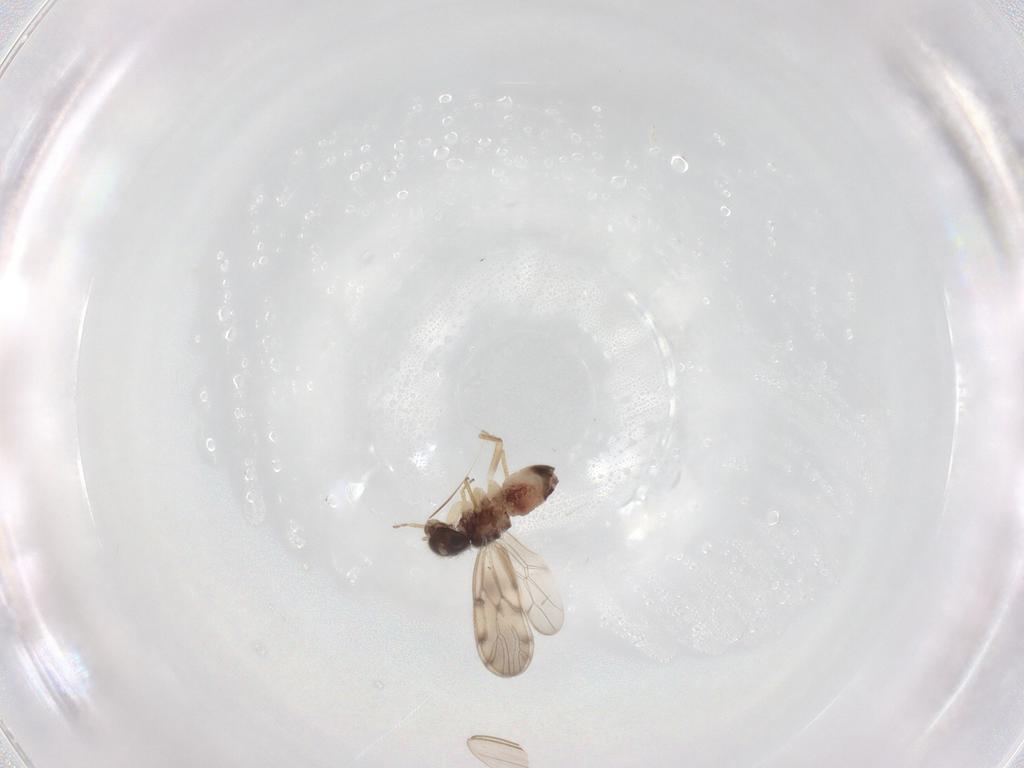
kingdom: Animalia
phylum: Arthropoda
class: Insecta
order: Psocodea
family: Peripsocidae
